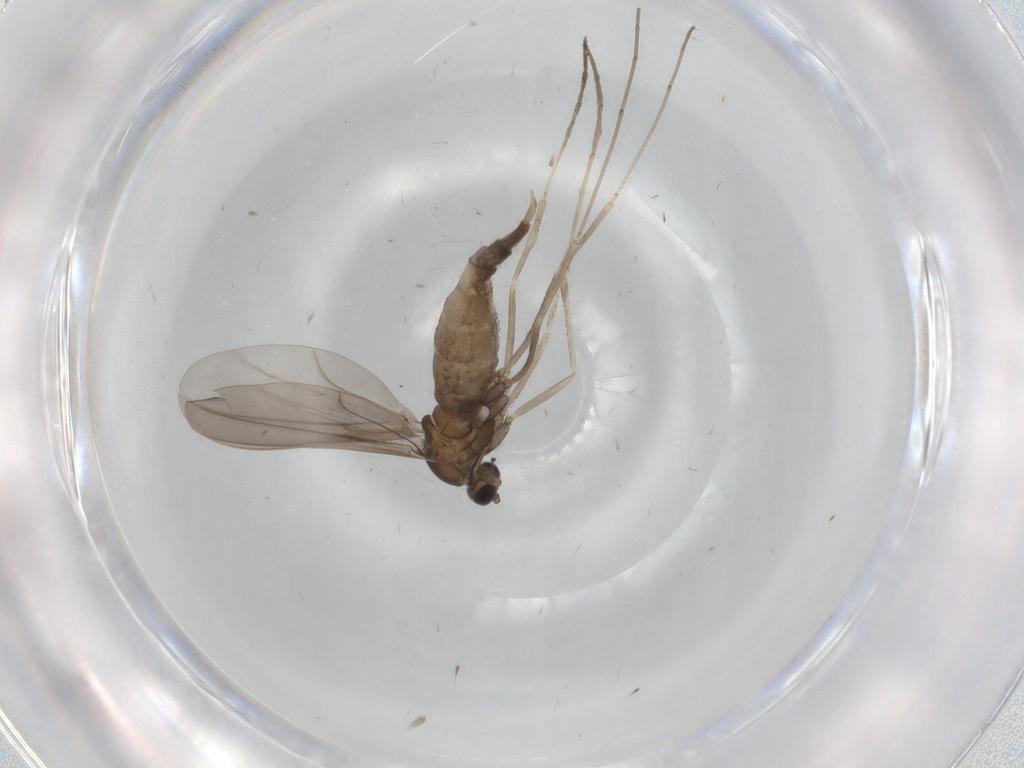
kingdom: Animalia
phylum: Arthropoda
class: Insecta
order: Diptera
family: Cecidomyiidae
